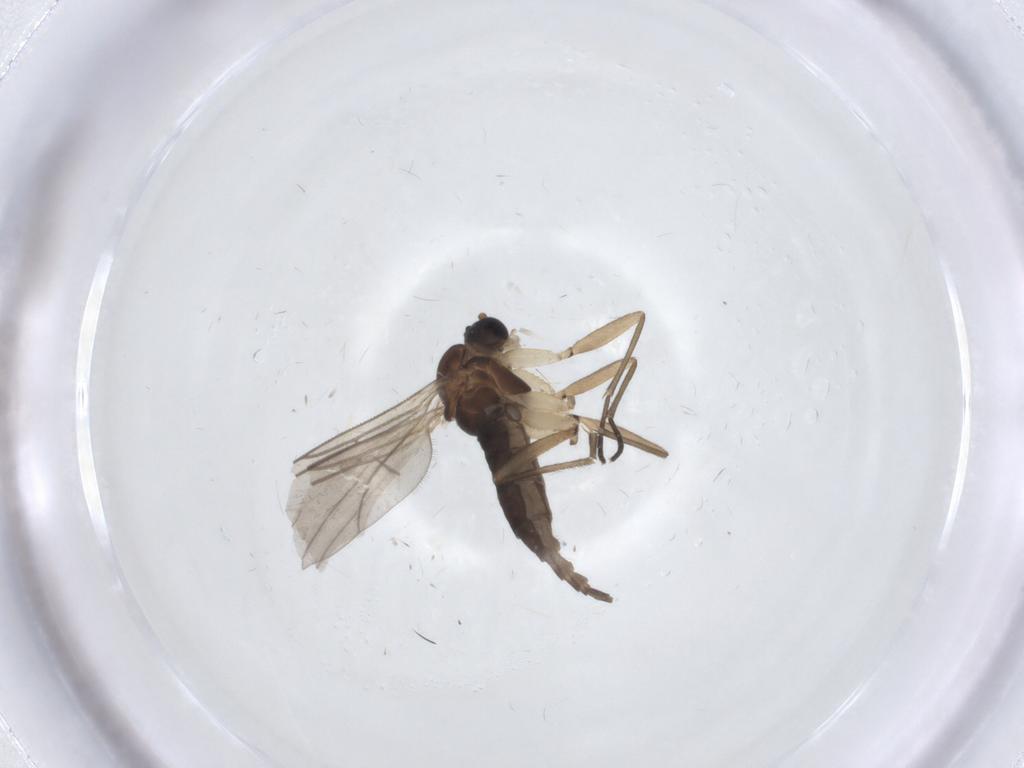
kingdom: Animalia
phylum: Arthropoda
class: Insecta
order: Diptera
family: Sciaridae
